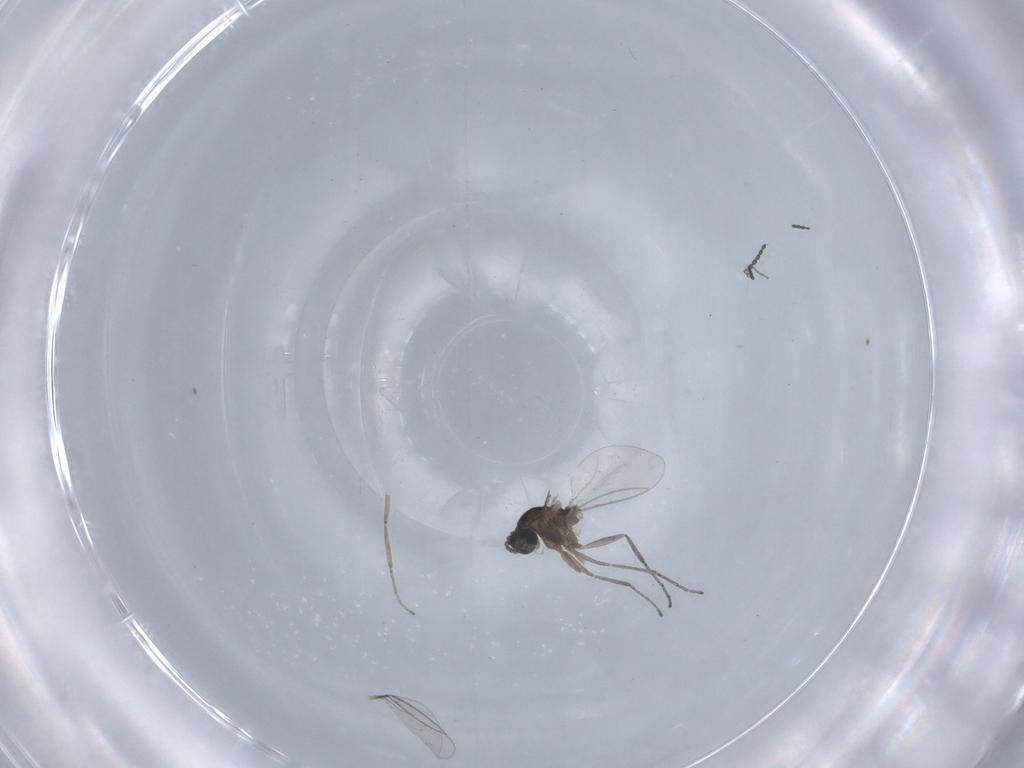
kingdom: Animalia
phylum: Arthropoda
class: Insecta
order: Diptera
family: Cecidomyiidae
